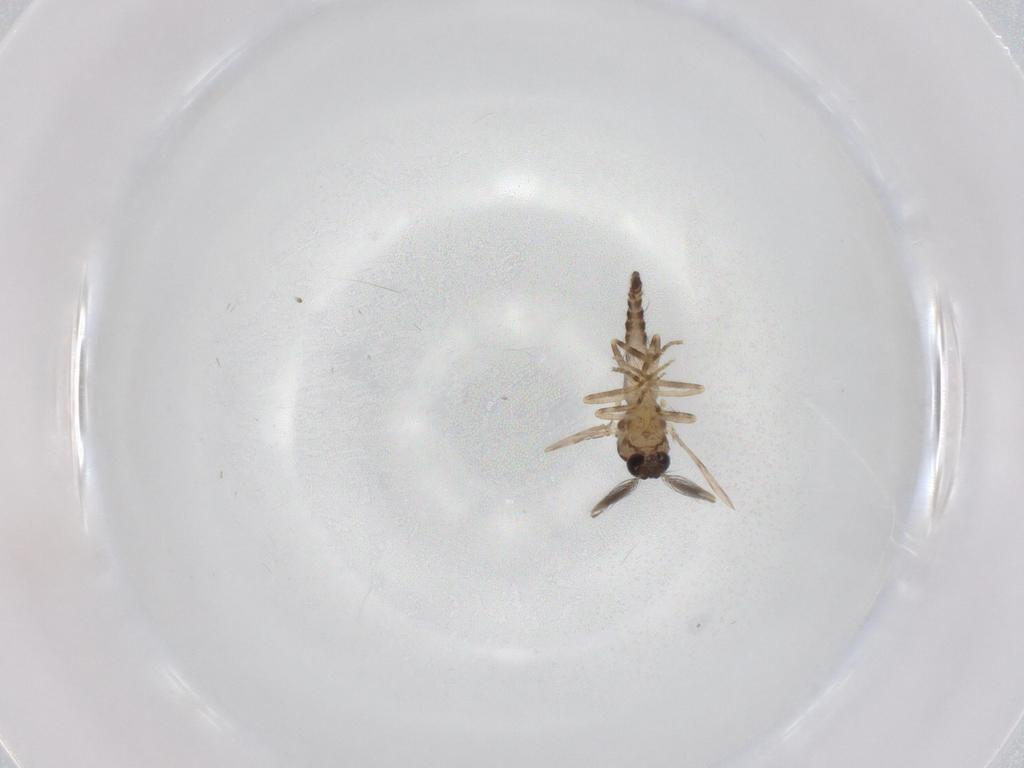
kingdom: Animalia
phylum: Arthropoda
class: Insecta
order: Diptera
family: Ceratopogonidae
